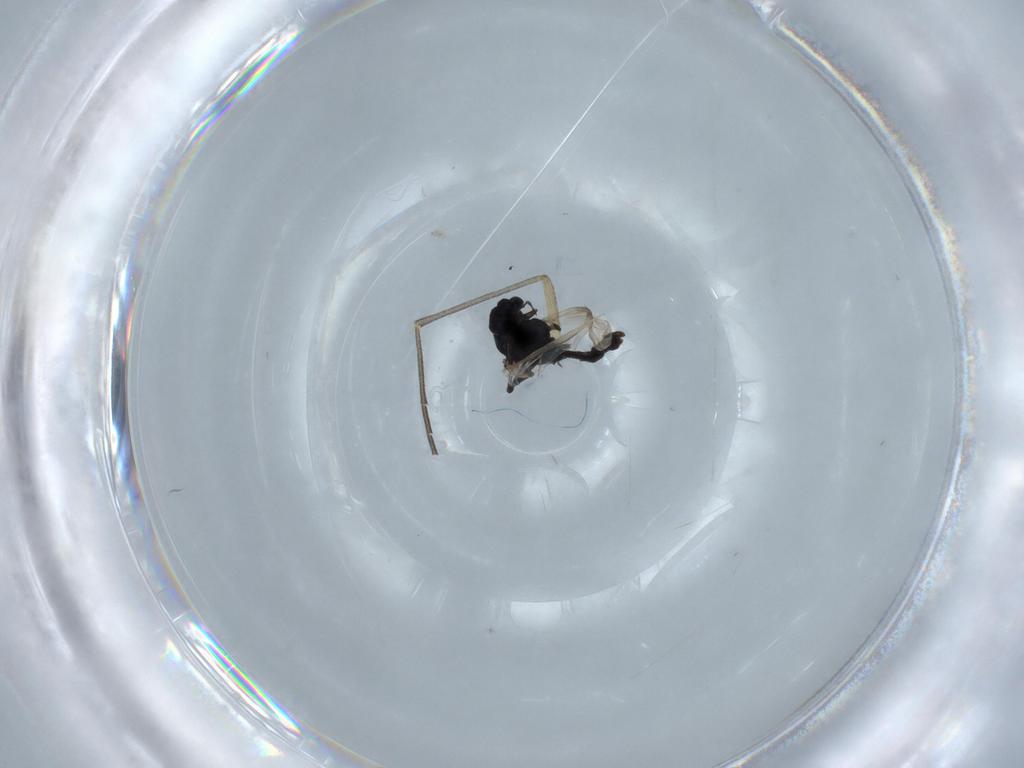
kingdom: Animalia
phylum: Arthropoda
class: Insecta
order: Diptera
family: Chironomidae
